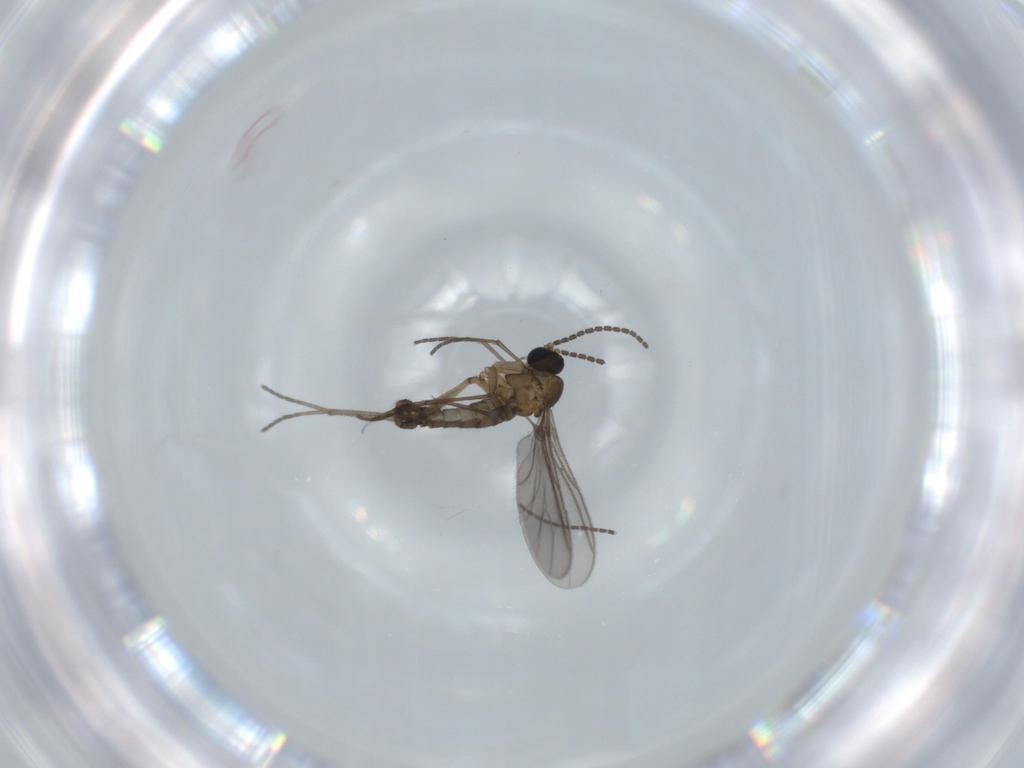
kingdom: Animalia
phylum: Arthropoda
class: Insecta
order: Diptera
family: Sciaridae
